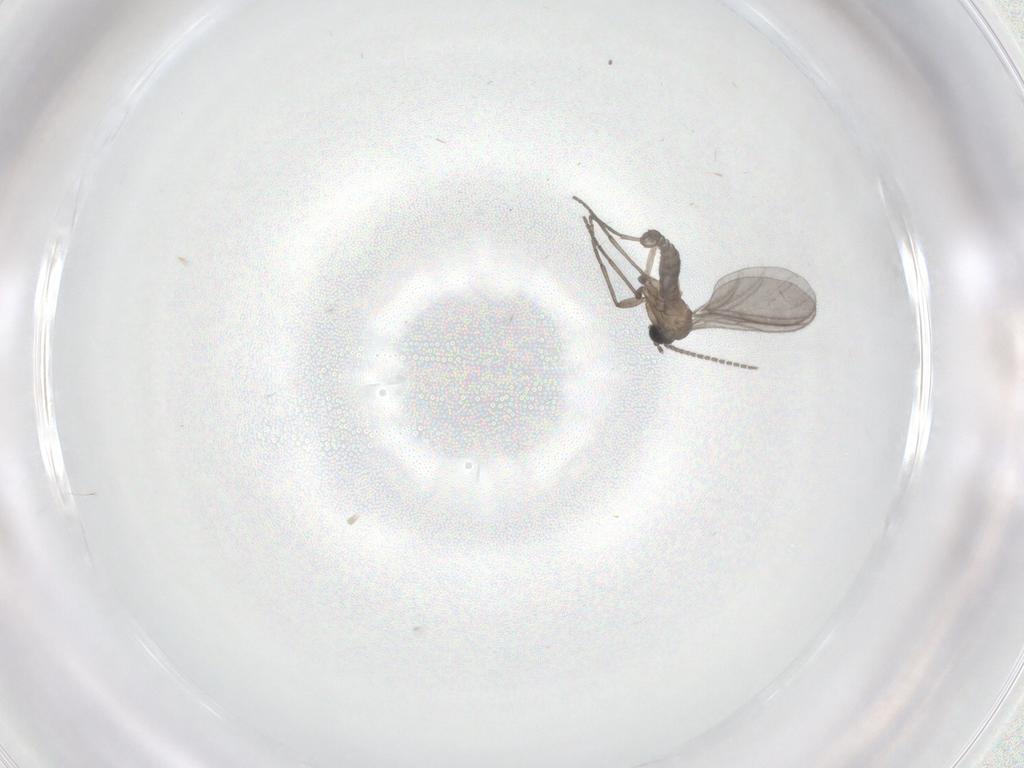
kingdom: Animalia
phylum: Arthropoda
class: Insecta
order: Diptera
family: Sciaridae
